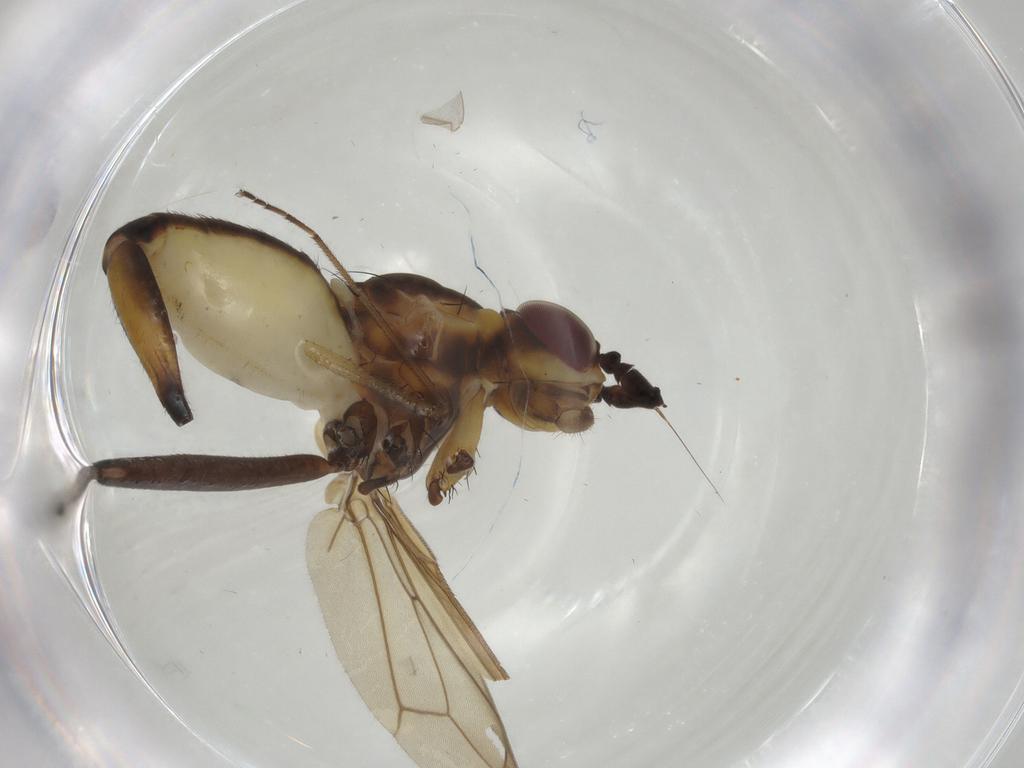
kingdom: Animalia
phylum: Arthropoda
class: Insecta
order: Diptera
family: Neriidae
